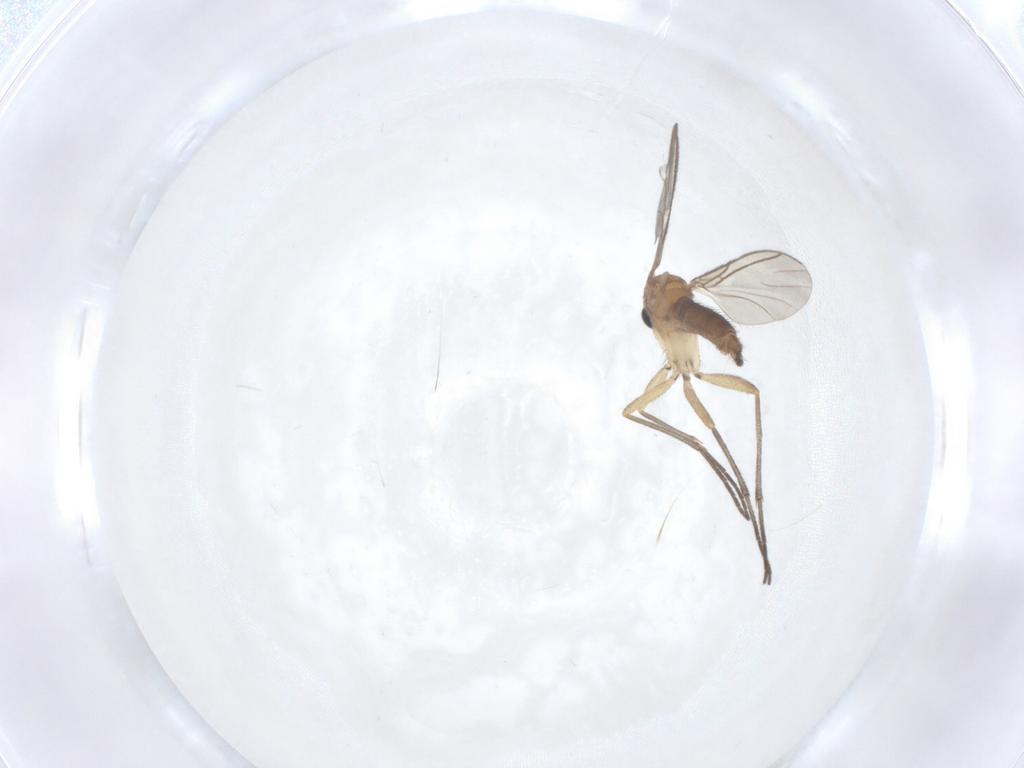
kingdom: Animalia
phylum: Arthropoda
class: Insecta
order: Diptera
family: Sciaridae
